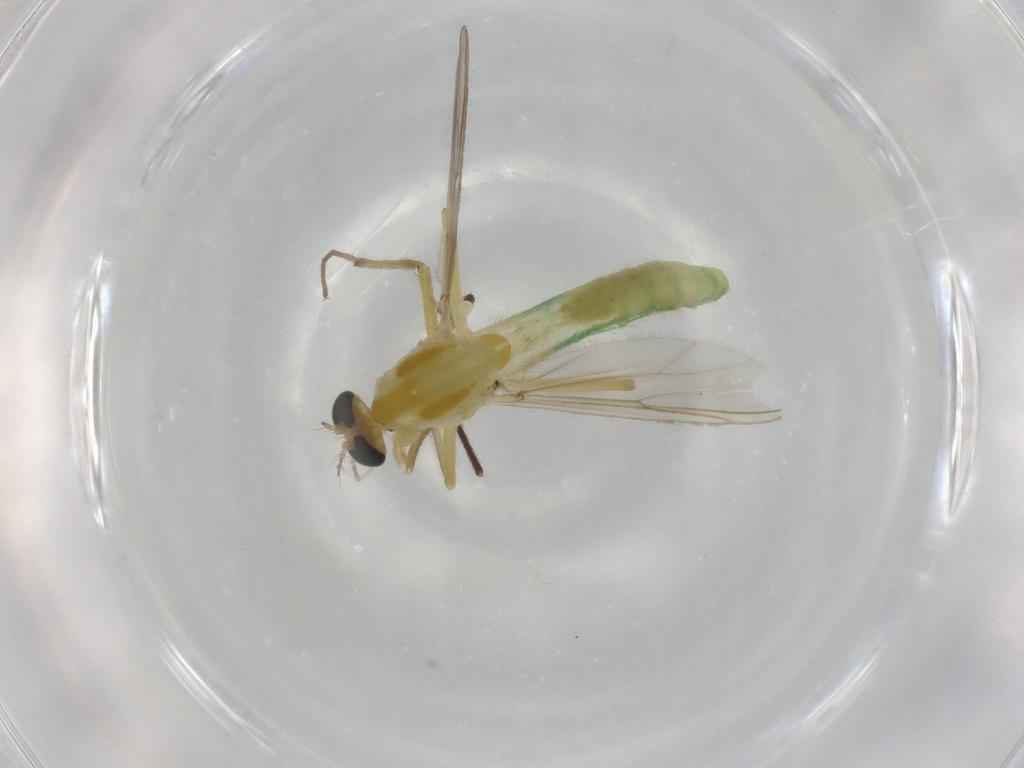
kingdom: Animalia
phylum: Arthropoda
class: Insecta
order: Diptera
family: Chironomidae
